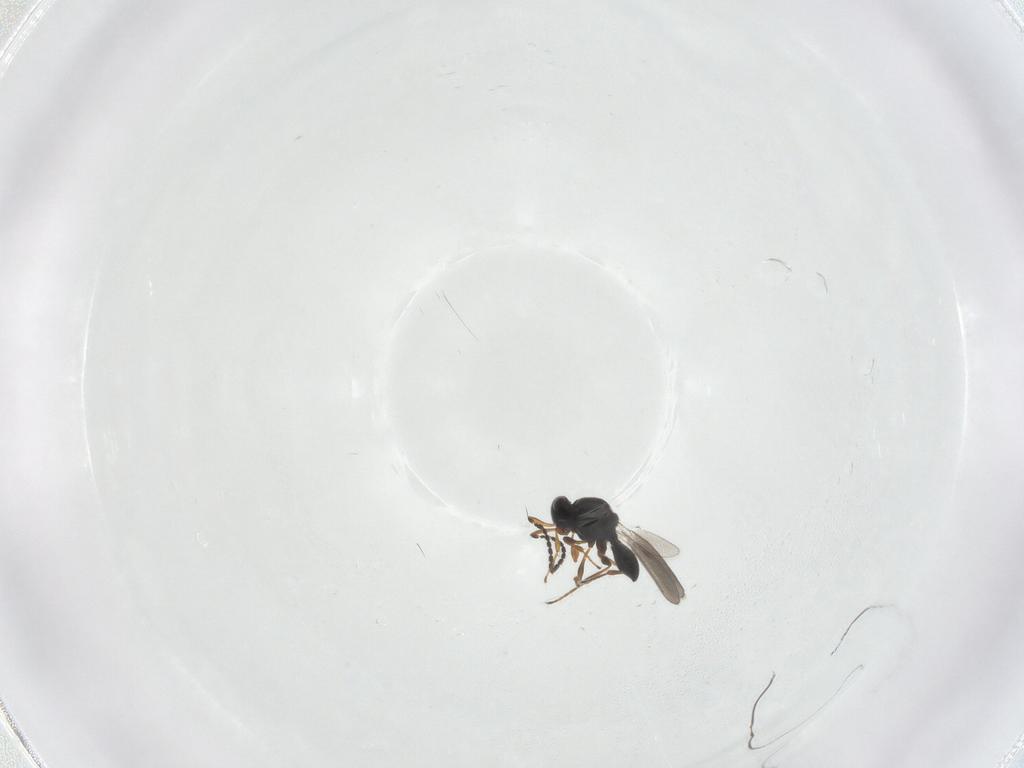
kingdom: Animalia
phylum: Arthropoda
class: Insecta
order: Hymenoptera
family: Platygastridae
